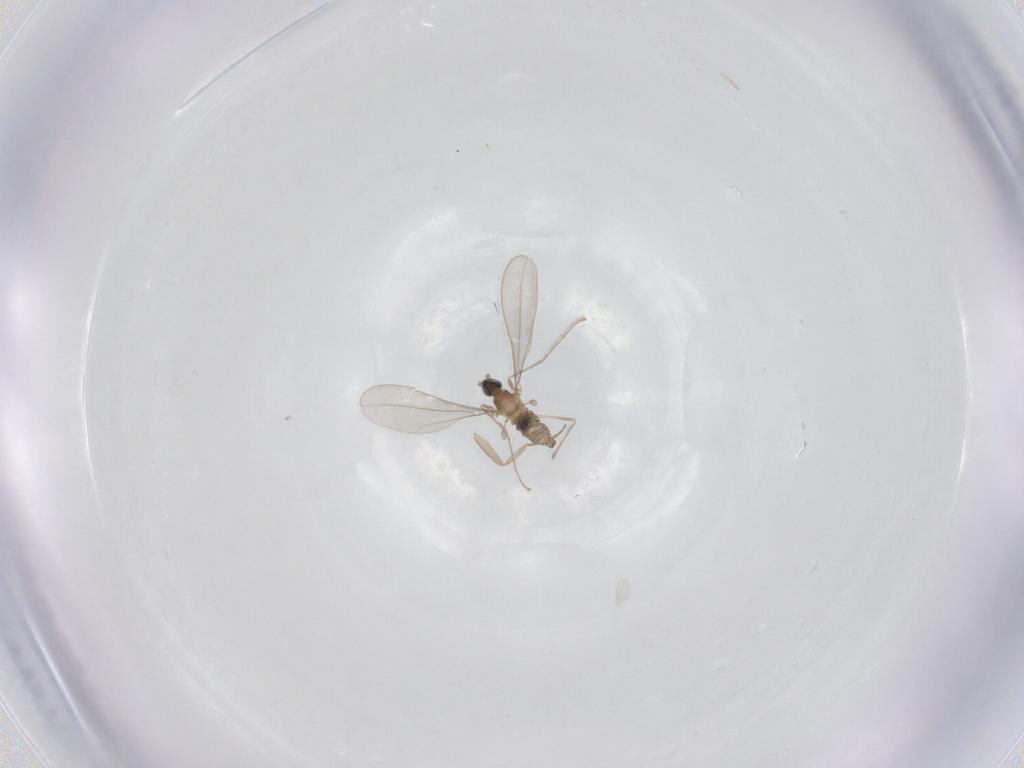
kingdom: Animalia
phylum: Arthropoda
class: Insecta
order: Diptera
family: Cecidomyiidae
